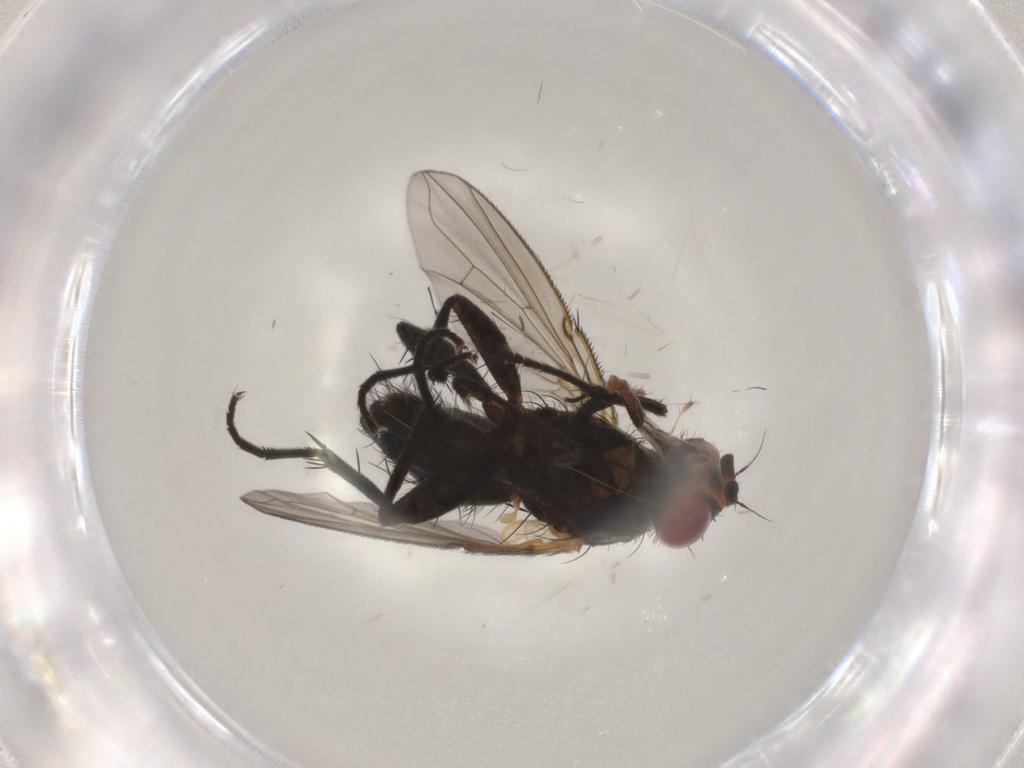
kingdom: Animalia
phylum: Arthropoda
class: Insecta
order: Diptera
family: Calliphoridae
